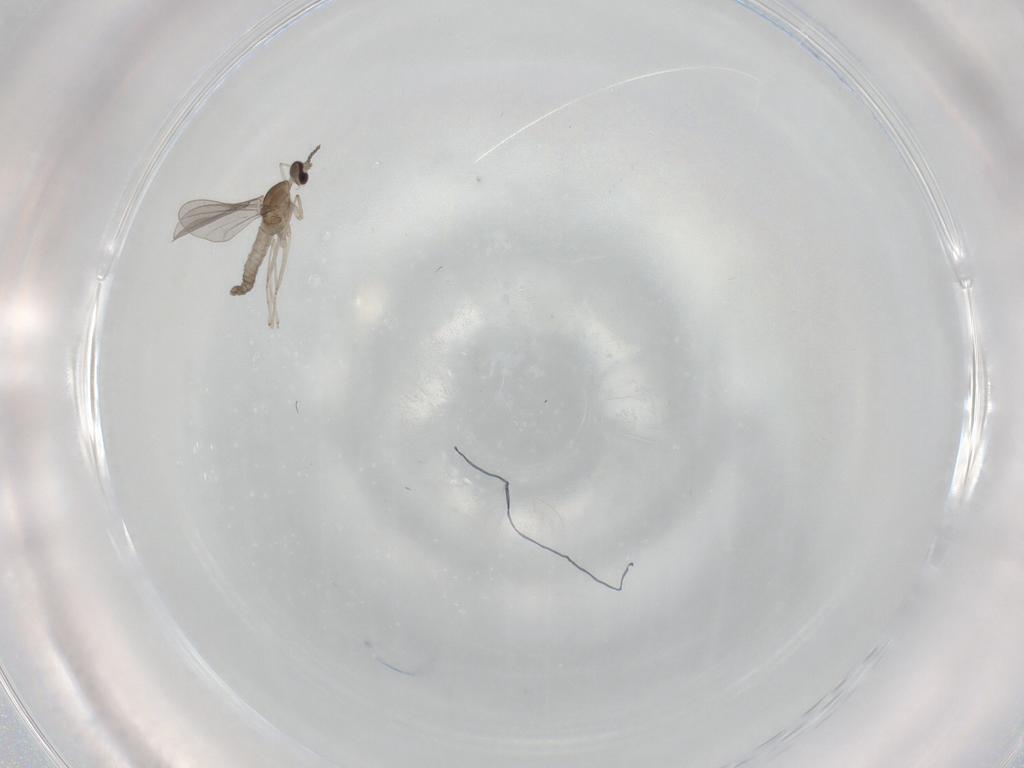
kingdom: Animalia
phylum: Arthropoda
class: Insecta
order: Diptera
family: Cecidomyiidae
